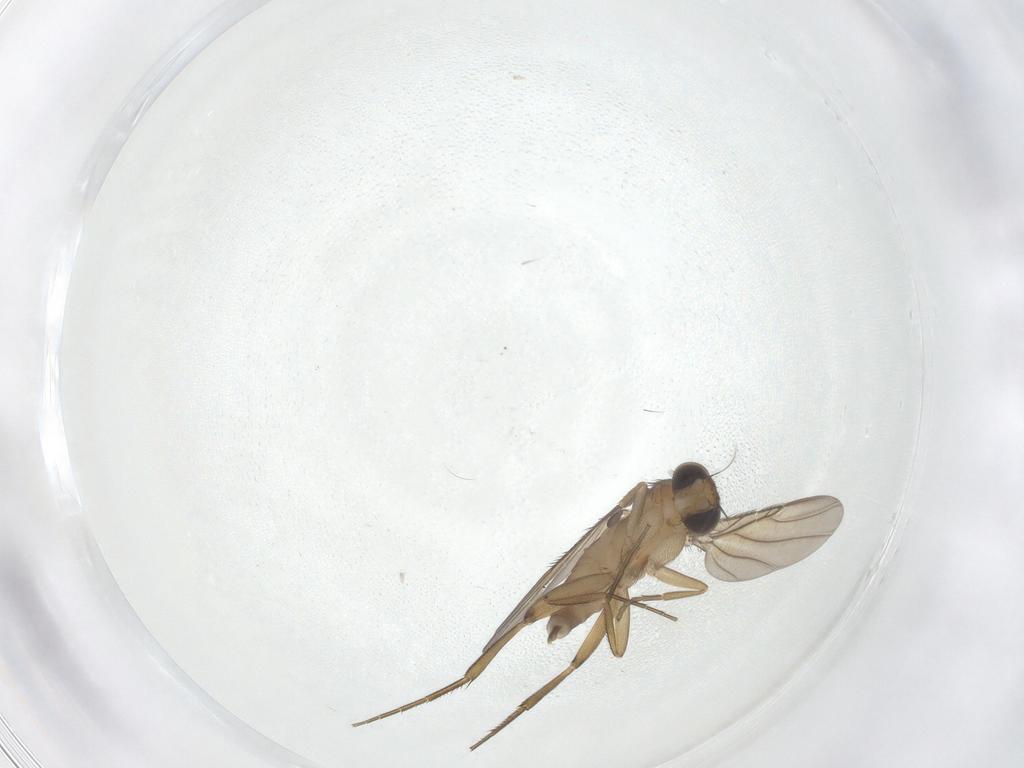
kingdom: Animalia
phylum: Arthropoda
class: Insecta
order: Diptera
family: Phoridae
